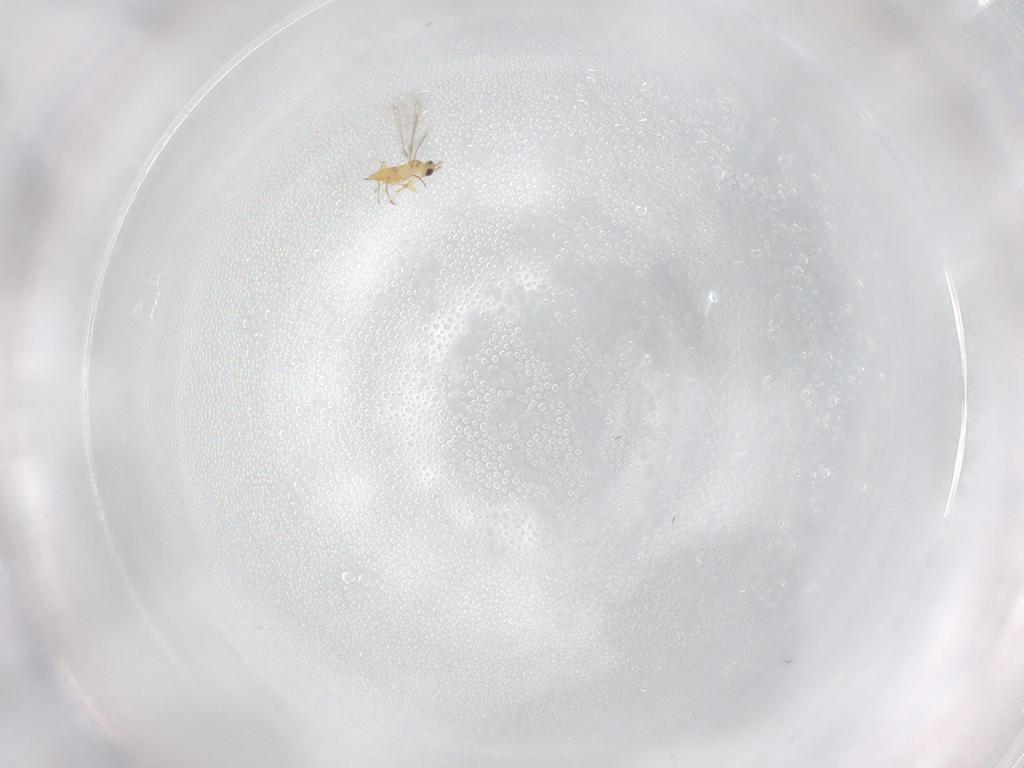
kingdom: Animalia
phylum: Arthropoda
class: Insecta
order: Hymenoptera
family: Mymaridae
